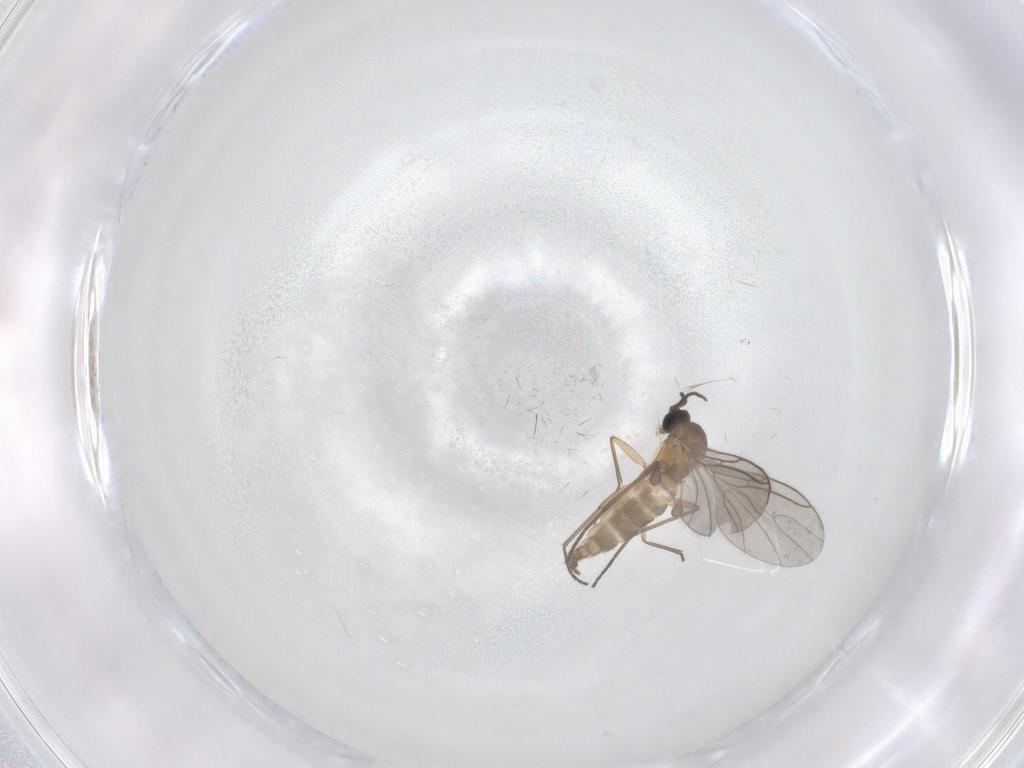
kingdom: Animalia
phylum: Arthropoda
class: Insecta
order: Diptera
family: Sciaridae
